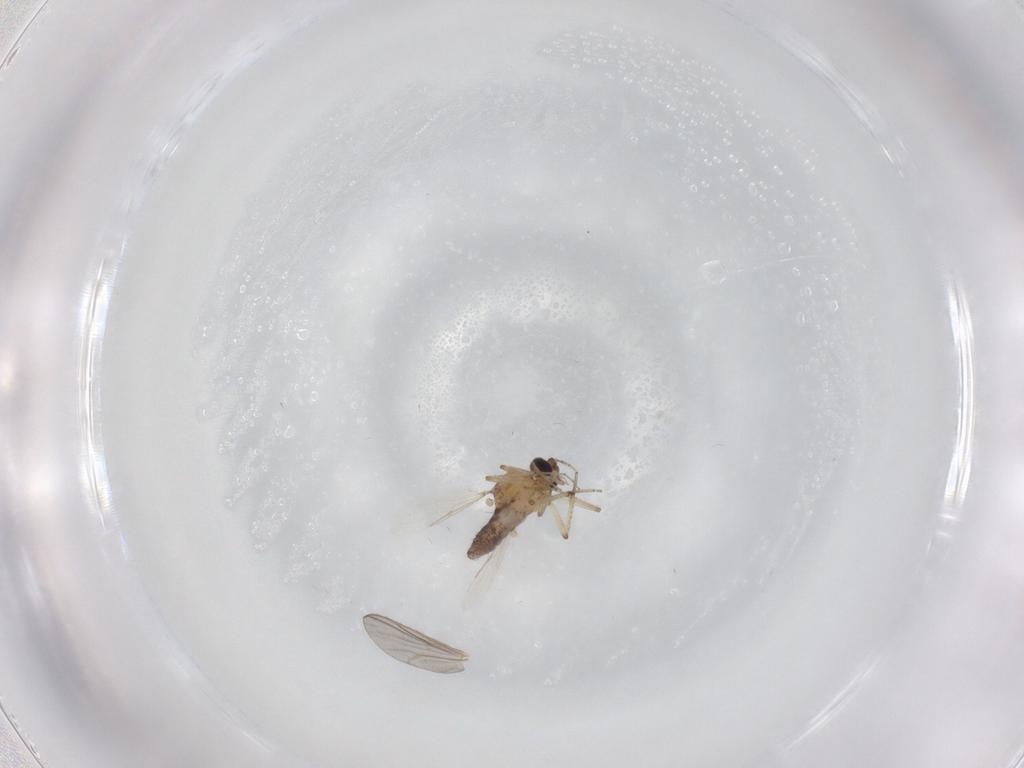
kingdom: Animalia
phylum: Arthropoda
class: Insecta
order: Diptera
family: Ceratopogonidae
